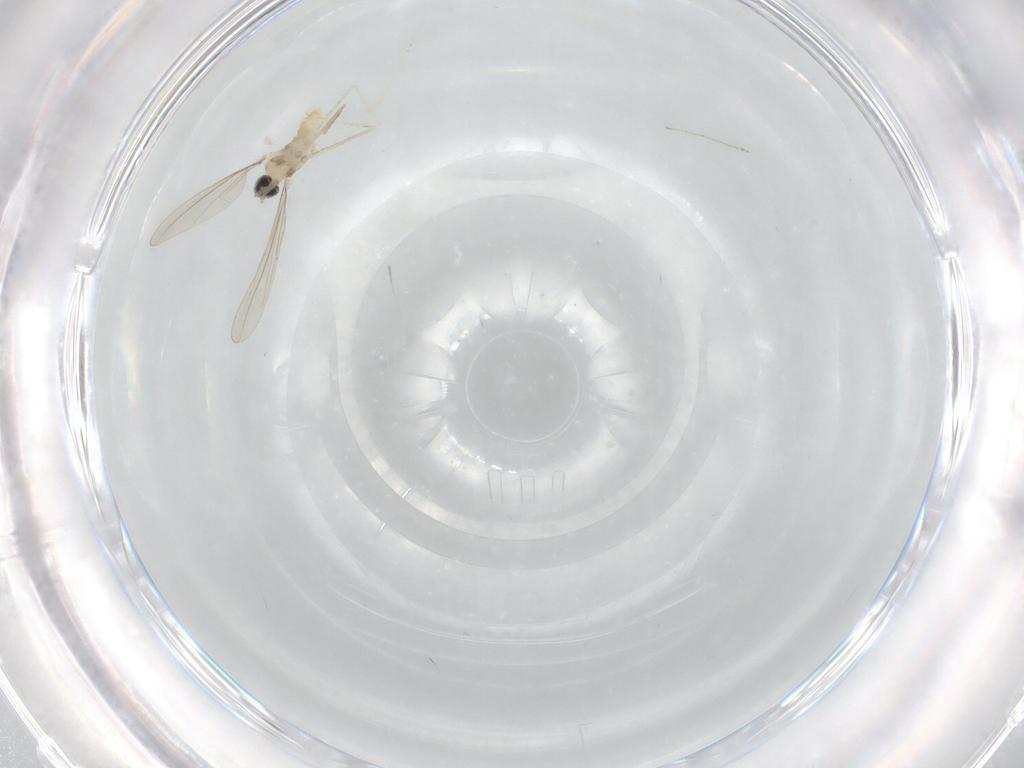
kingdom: Animalia
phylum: Arthropoda
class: Insecta
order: Diptera
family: Cecidomyiidae
